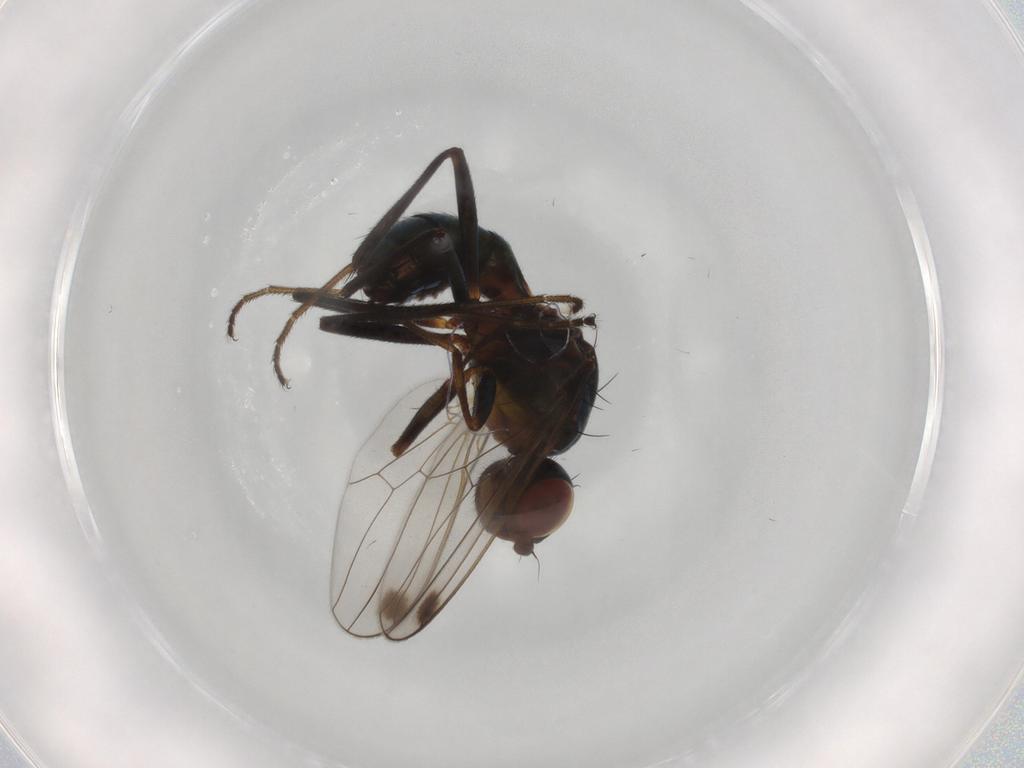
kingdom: Animalia
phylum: Arthropoda
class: Insecta
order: Diptera
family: Sepsidae
